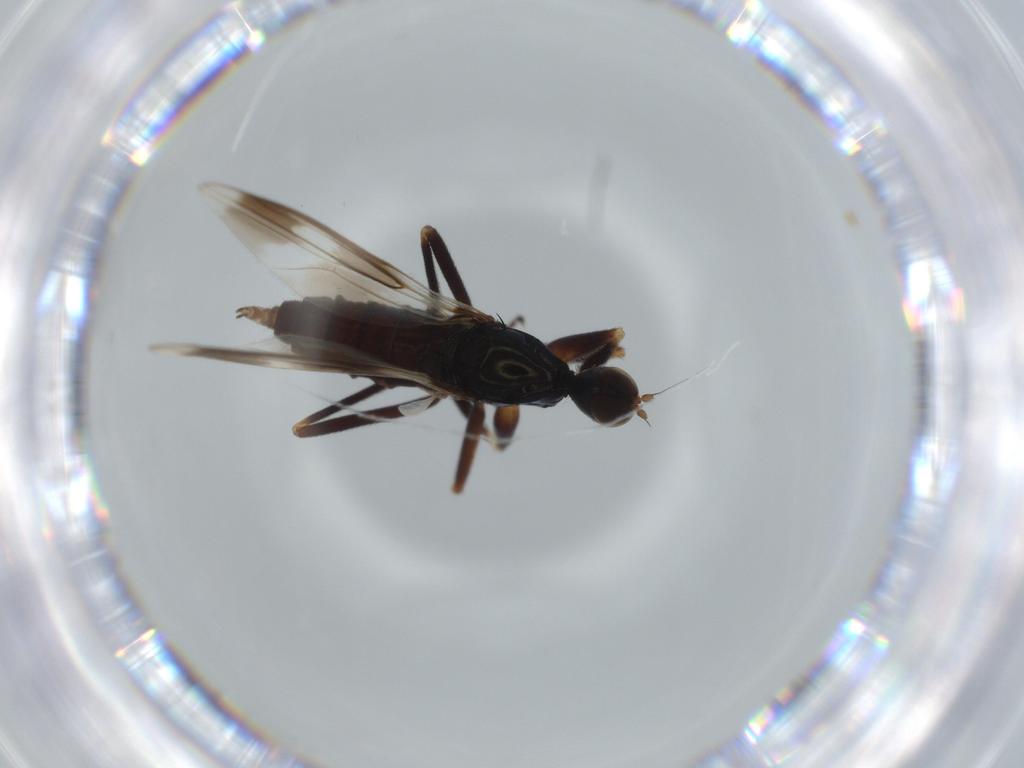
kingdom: Animalia
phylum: Arthropoda
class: Insecta
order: Diptera
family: Hybotidae
